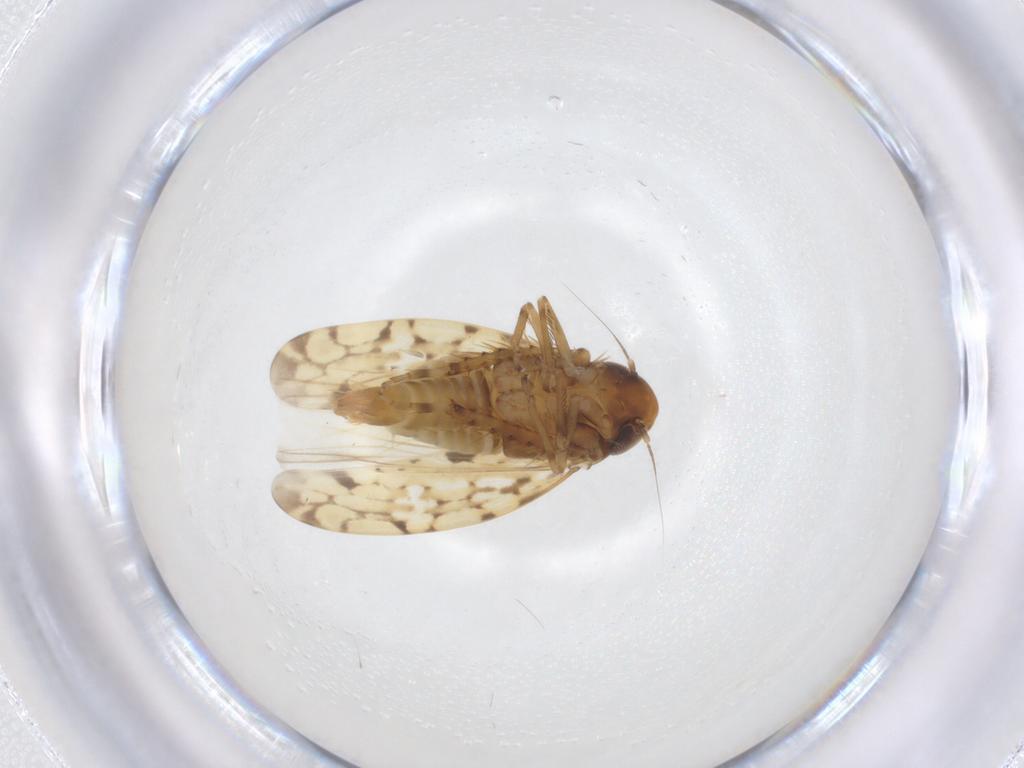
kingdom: Animalia
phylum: Arthropoda
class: Insecta
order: Hemiptera
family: Cicadellidae
